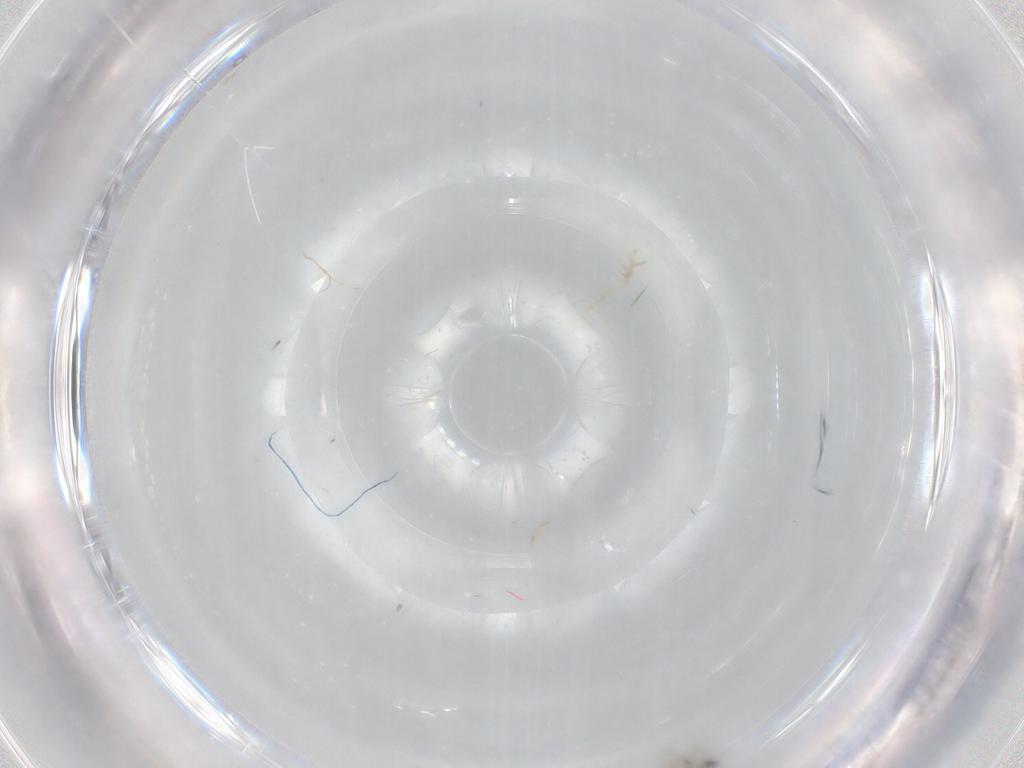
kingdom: Animalia
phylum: Arthropoda
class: Insecta
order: Diptera
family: Cecidomyiidae
